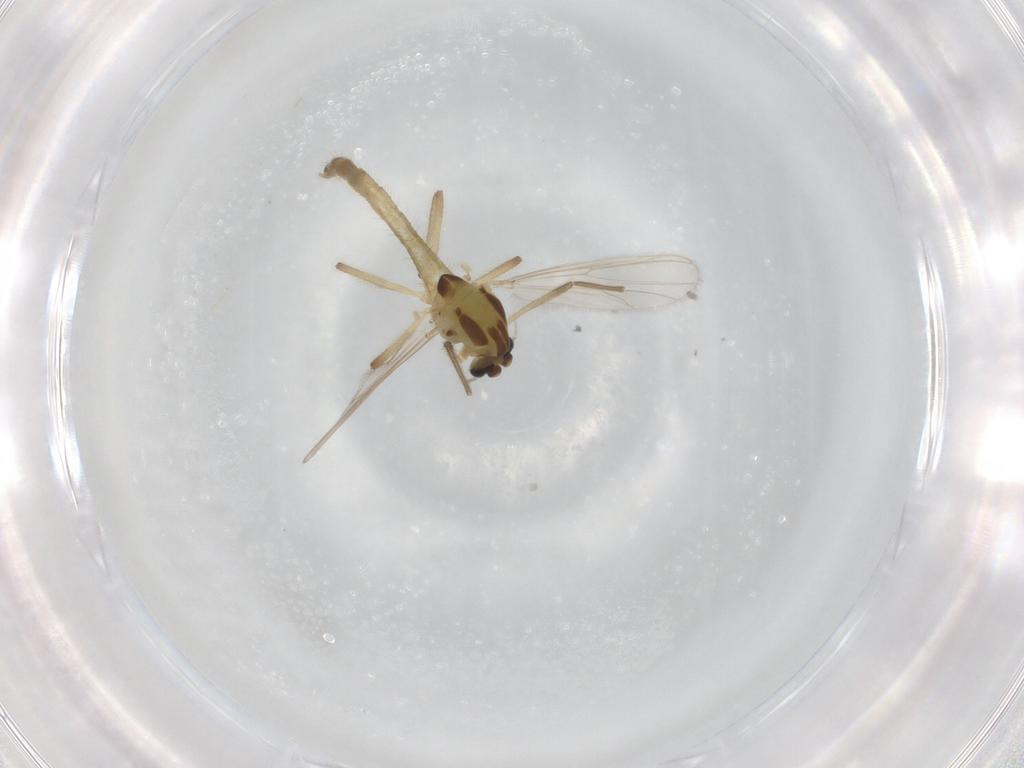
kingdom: Animalia
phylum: Arthropoda
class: Insecta
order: Diptera
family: Chironomidae
